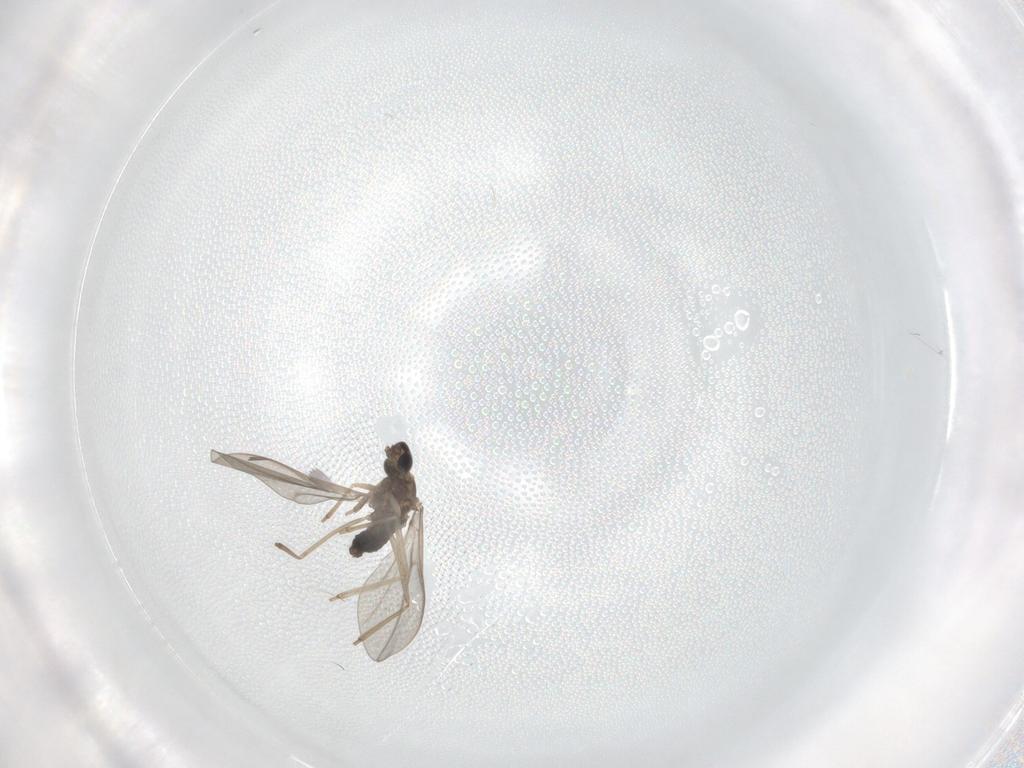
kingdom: Animalia
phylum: Arthropoda
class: Insecta
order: Diptera
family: Cecidomyiidae
